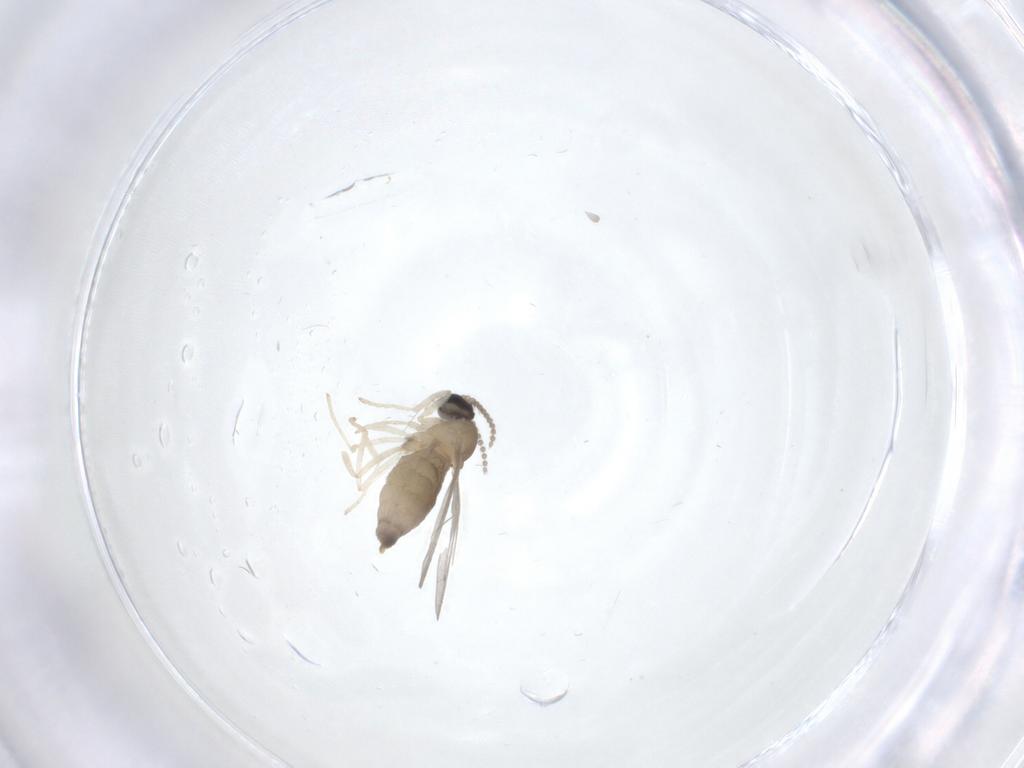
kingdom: Animalia
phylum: Arthropoda
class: Insecta
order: Diptera
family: Cecidomyiidae
